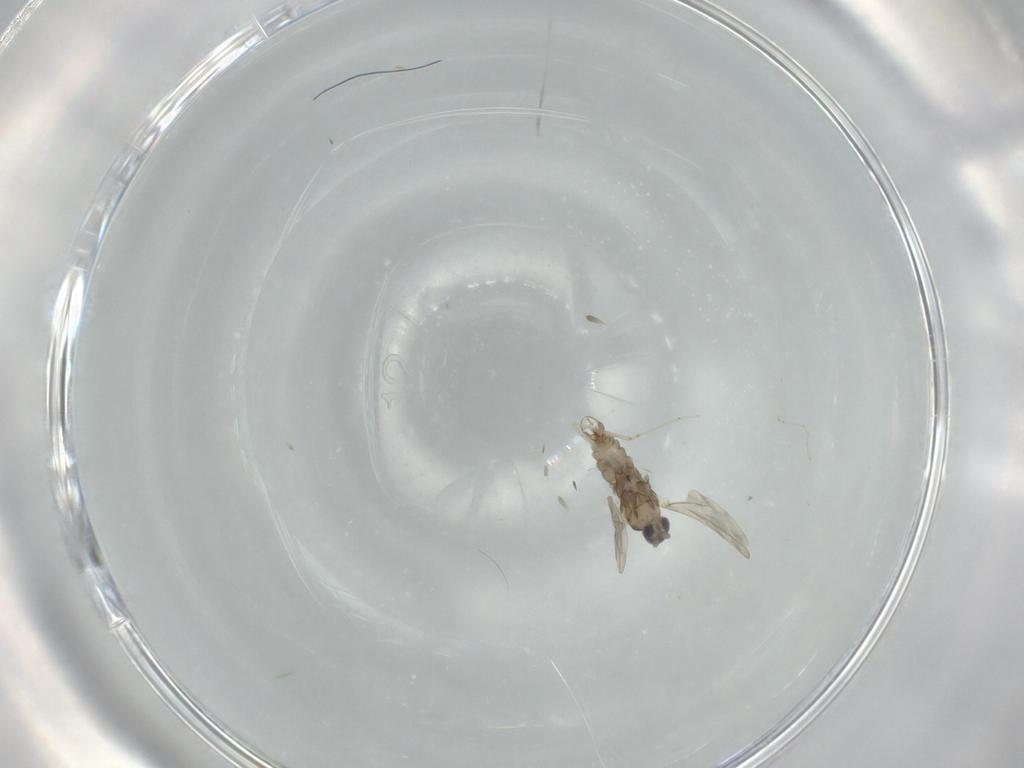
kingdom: Animalia
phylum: Arthropoda
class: Insecta
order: Diptera
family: Cecidomyiidae
